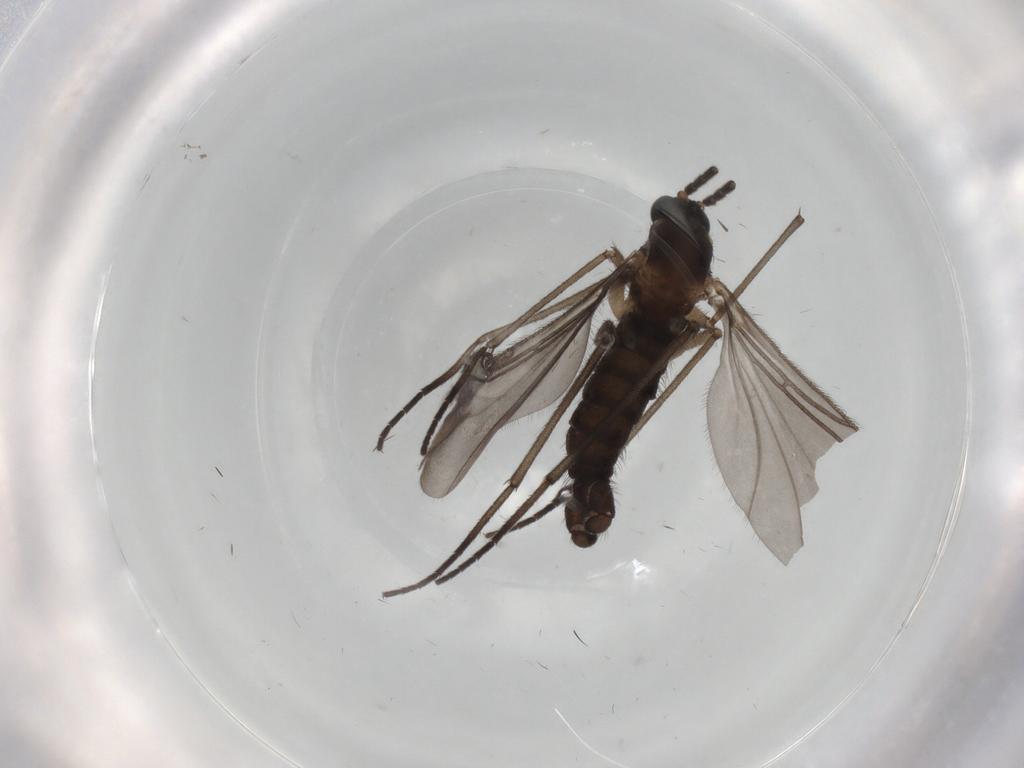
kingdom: Animalia
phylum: Arthropoda
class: Insecta
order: Diptera
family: Sciaridae
